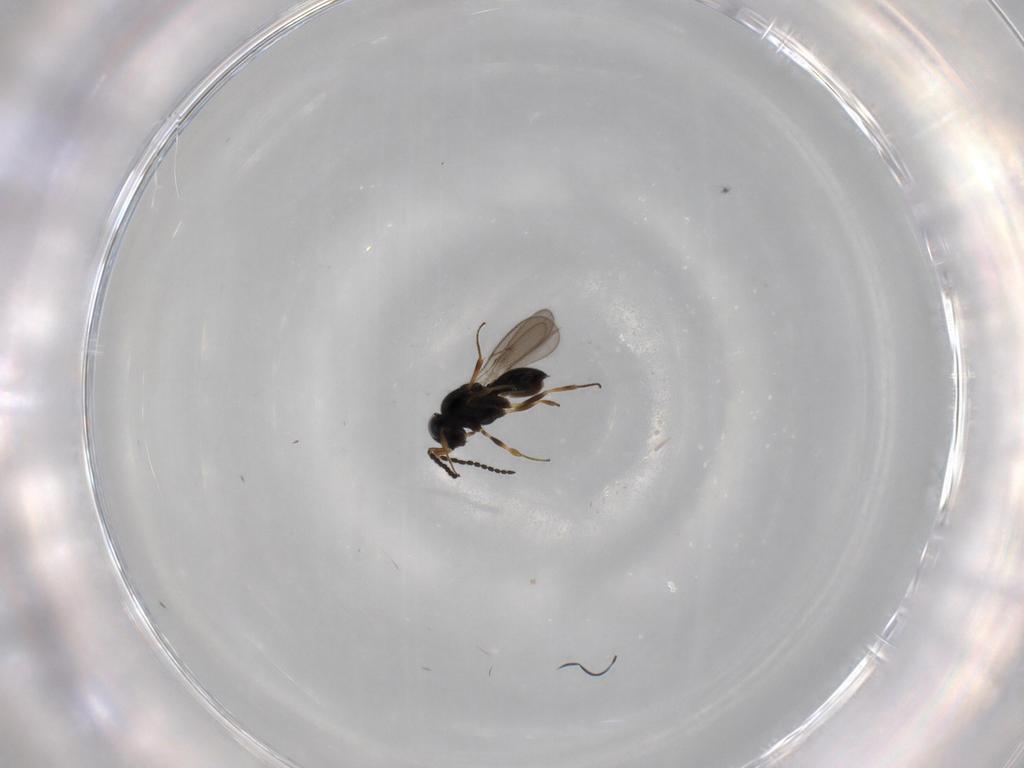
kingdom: Animalia
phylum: Arthropoda
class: Insecta
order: Hymenoptera
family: Scelionidae
